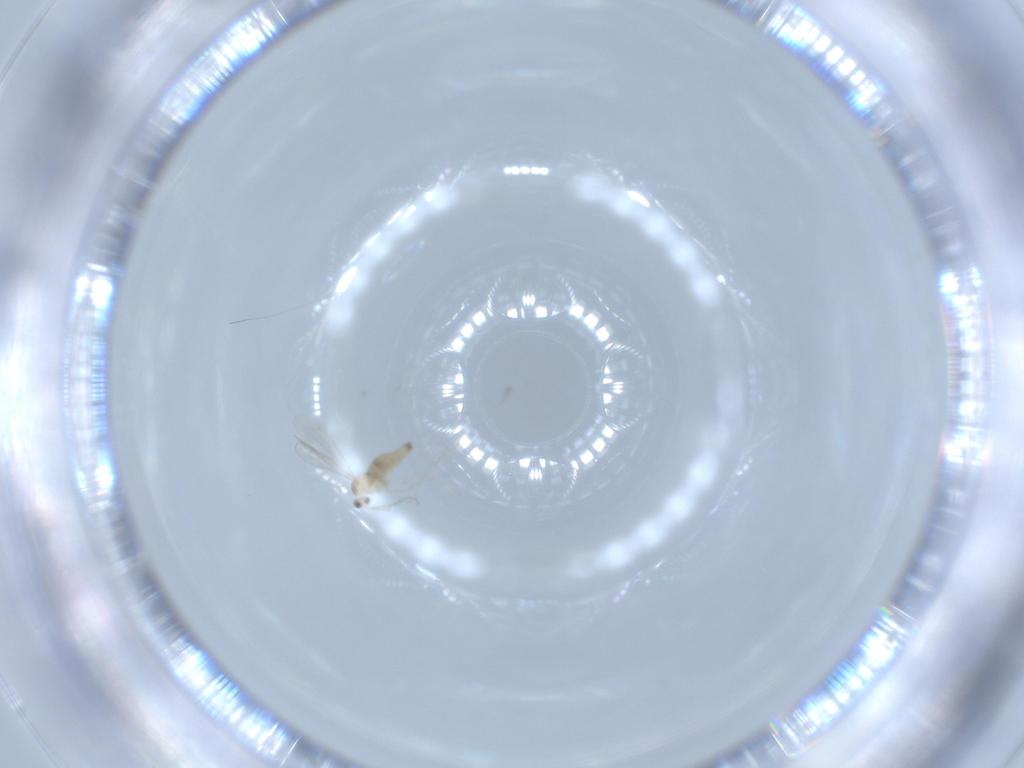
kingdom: Animalia
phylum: Arthropoda
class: Insecta
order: Diptera
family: Cecidomyiidae
